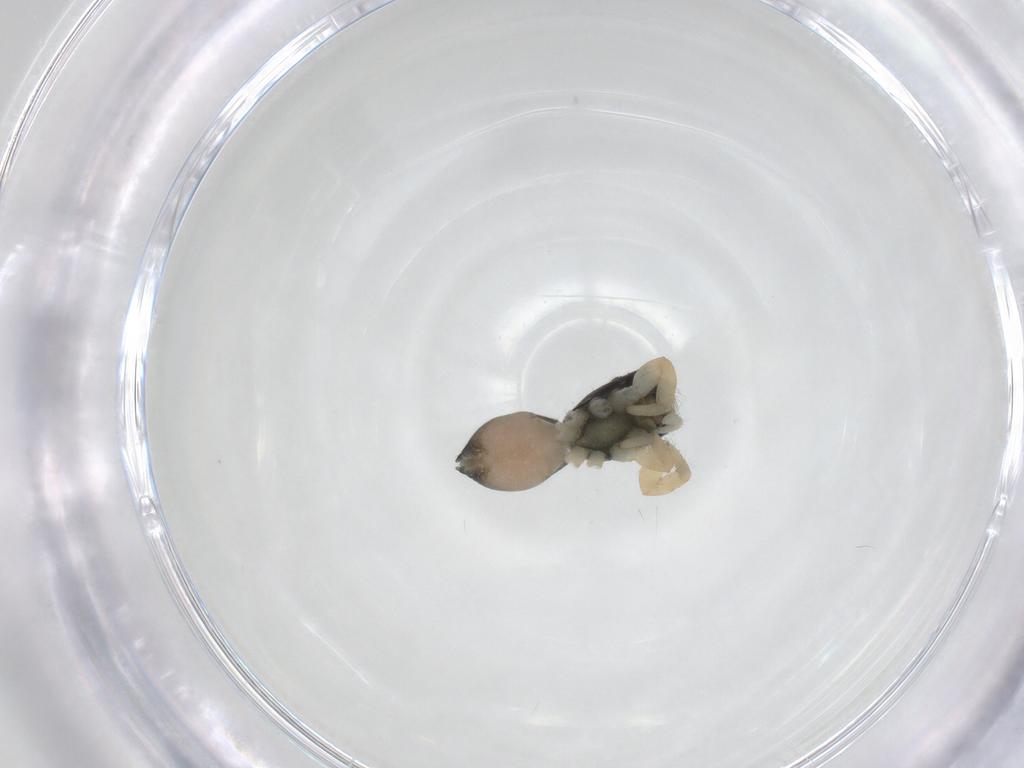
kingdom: Animalia
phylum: Arthropoda
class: Arachnida
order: Araneae
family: Salticidae
